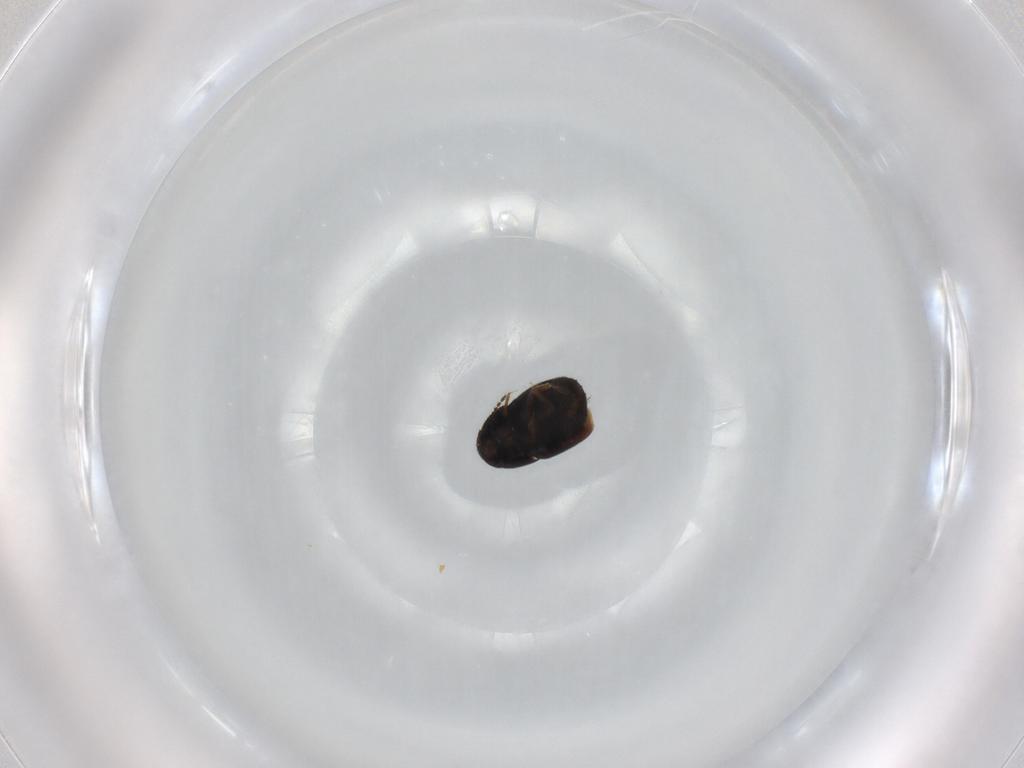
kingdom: Animalia
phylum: Arthropoda
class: Insecta
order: Coleoptera
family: Ptiliidae
